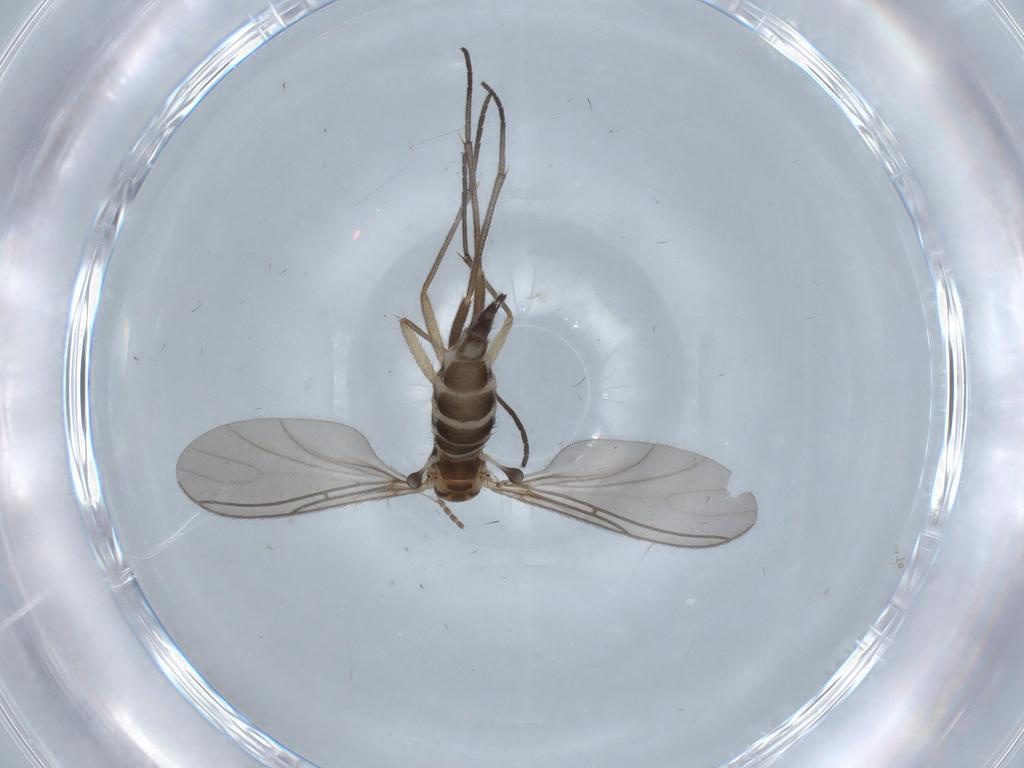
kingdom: Animalia
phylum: Arthropoda
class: Insecta
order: Diptera
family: Sciaridae
